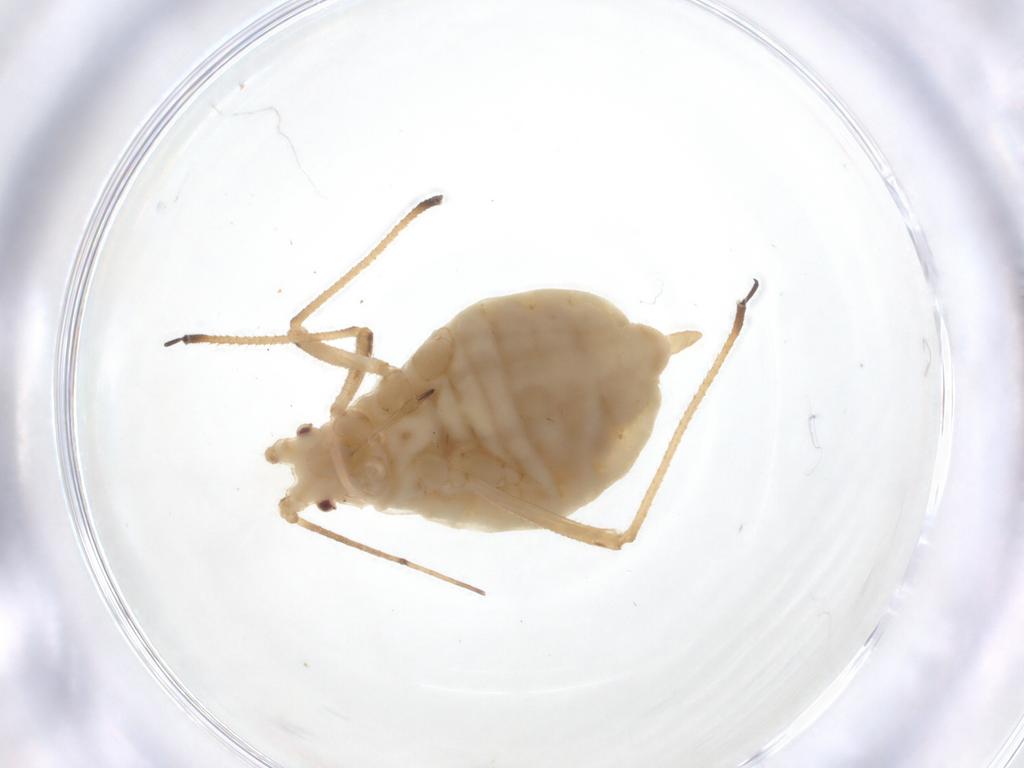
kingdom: Animalia
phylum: Arthropoda
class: Insecta
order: Hemiptera
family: Aphididae
